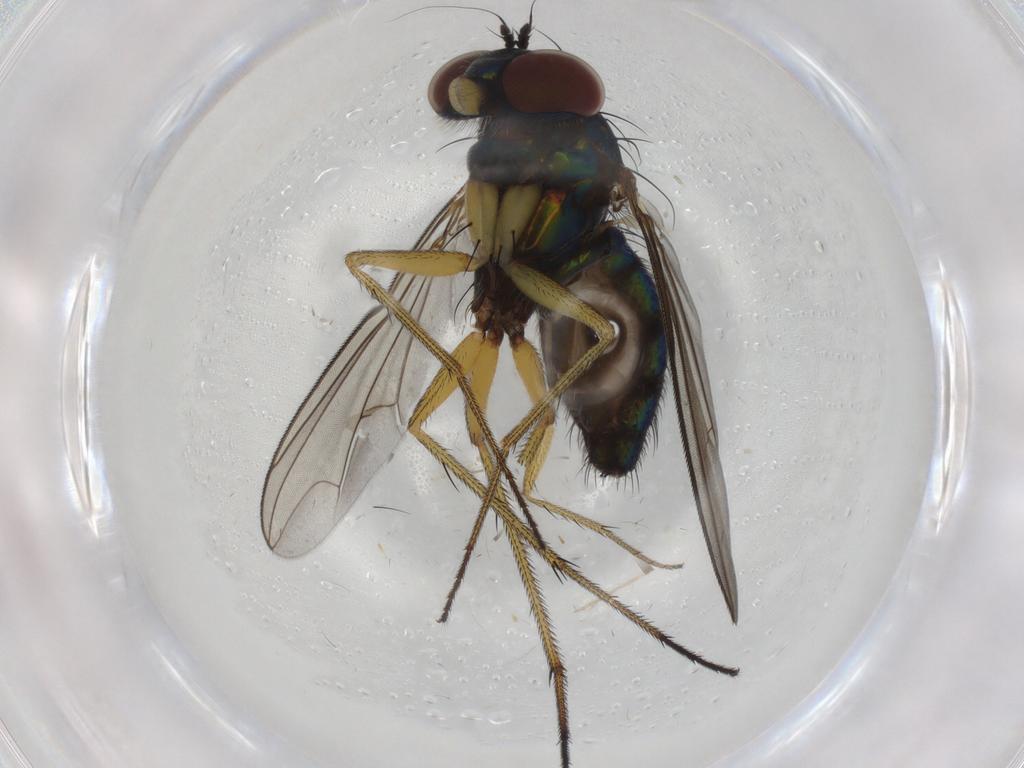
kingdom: Animalia
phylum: Arthropoda
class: Insecta
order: Diptera
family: Dolichopodidae
